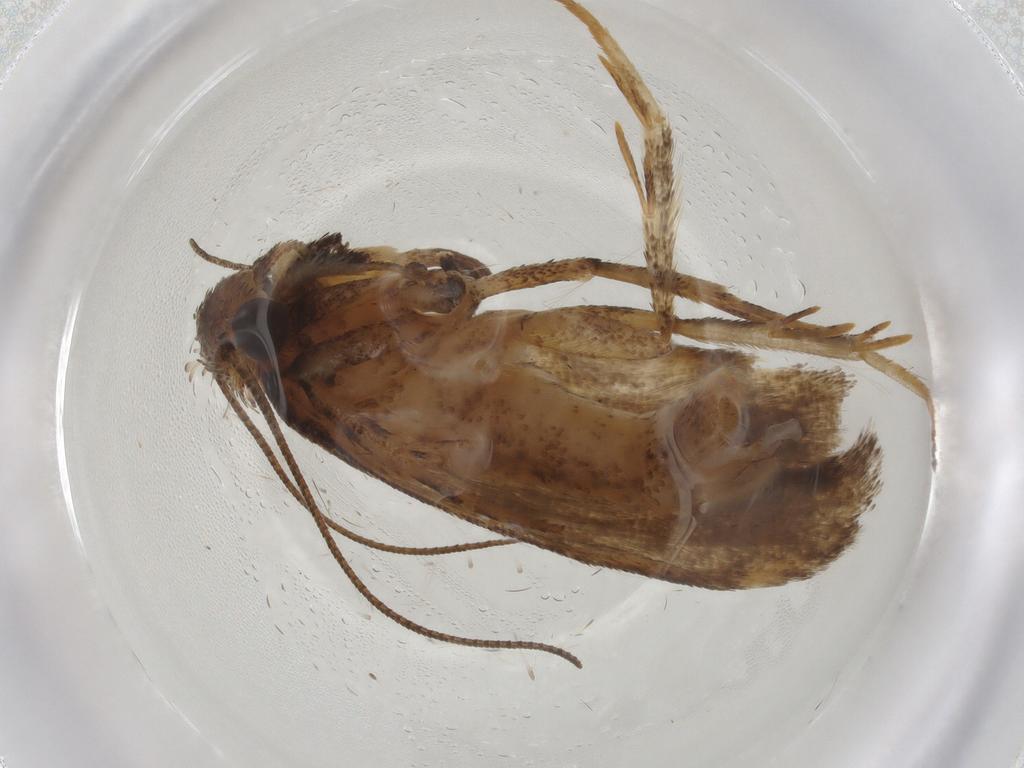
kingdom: Animalia
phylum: Arthropoda
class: Insecta
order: Lepidoptera
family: Gelechiidae
